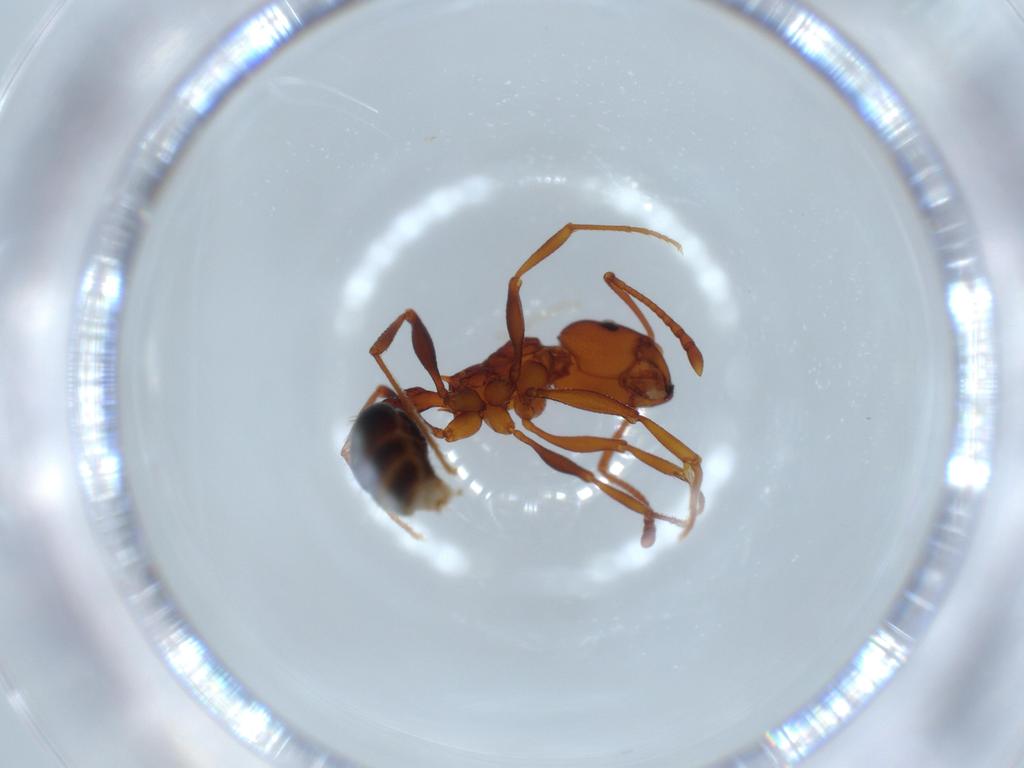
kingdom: Animalia
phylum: Arthropoda
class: Insecta
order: Hymenoptera
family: Formicidae
